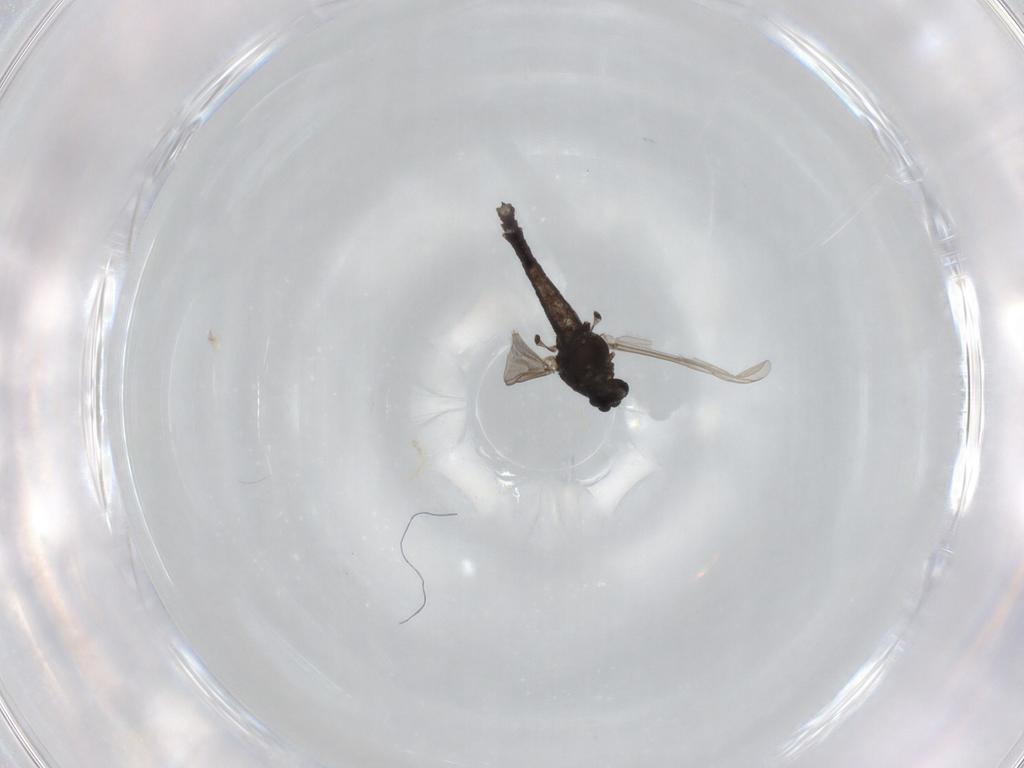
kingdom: Animalia
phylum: Arthropoda
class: Insecta
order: Diptera
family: Chironomidae
